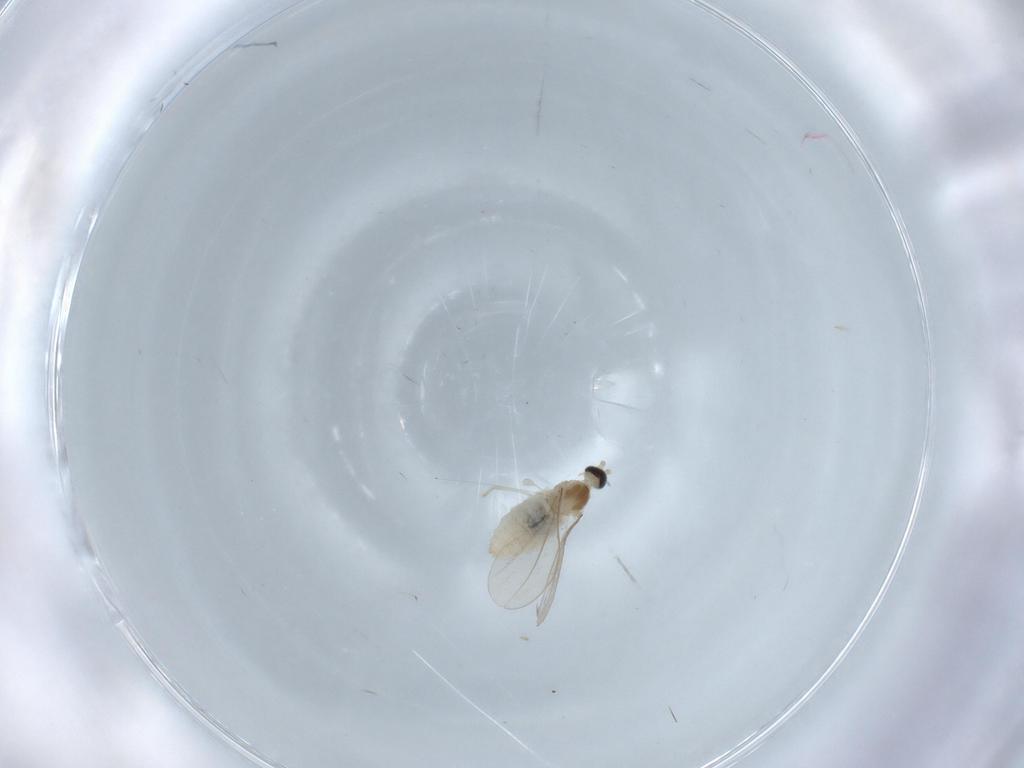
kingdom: Animalia
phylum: Arthropoda
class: Insecta
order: Diptera
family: Cecidomyiidae
